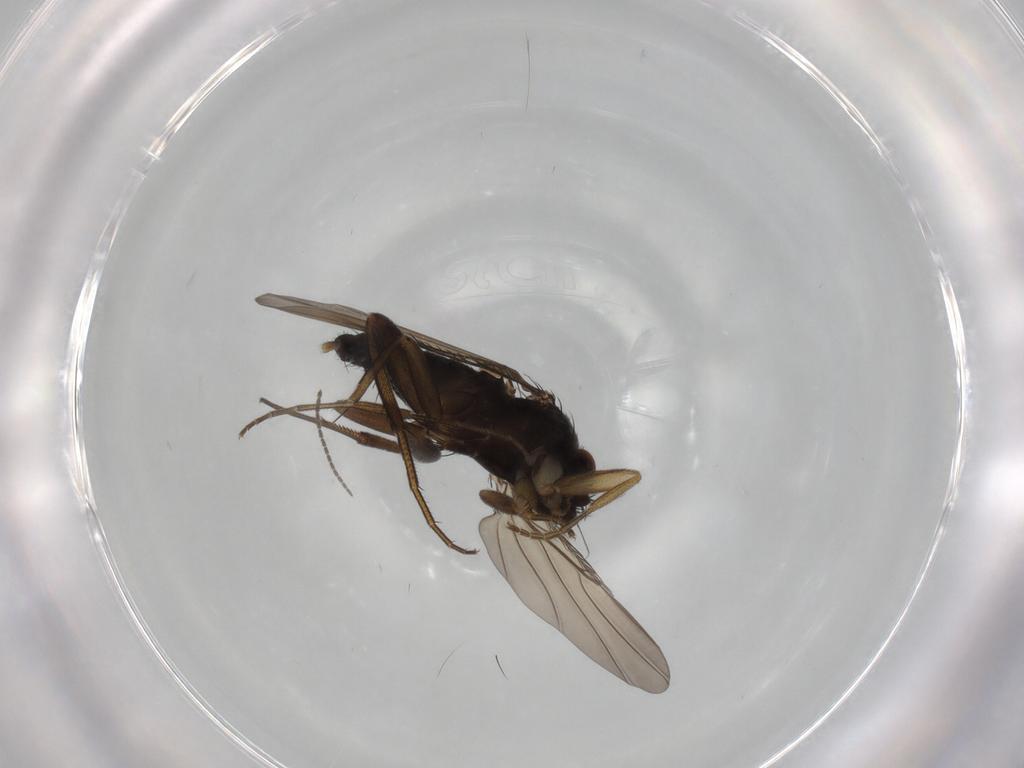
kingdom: Animalia
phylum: Arthropoda
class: Insecta
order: Diptera
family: Phoridae
